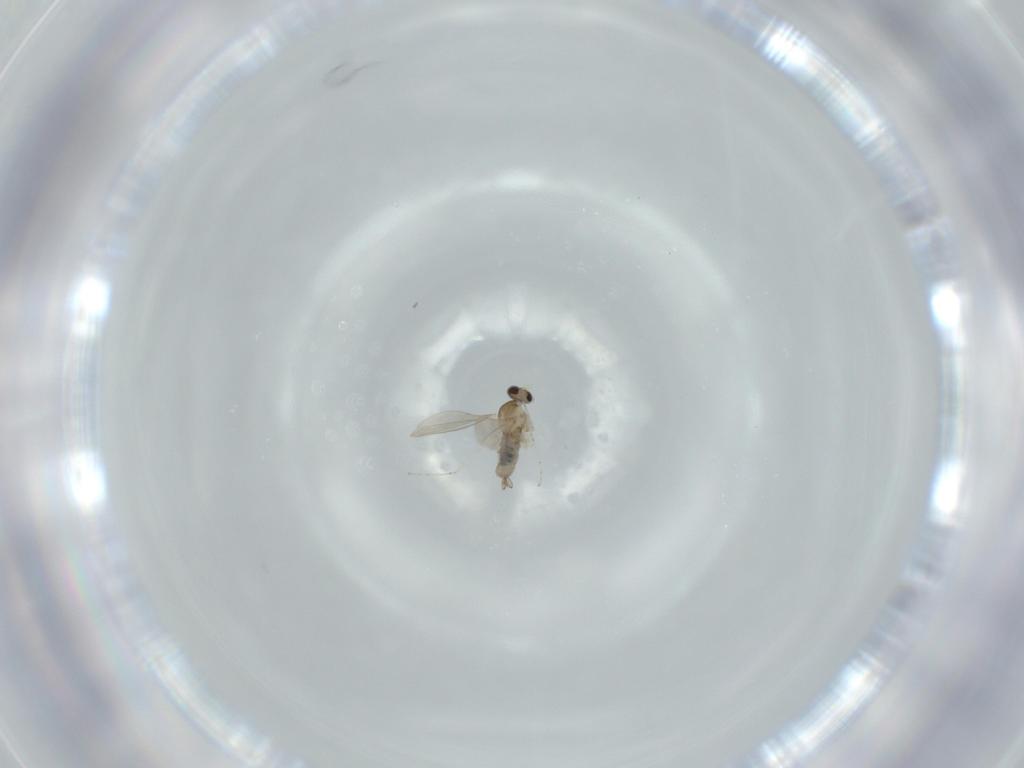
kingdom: Animalia
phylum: Arthropoda
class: Insecta
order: Diptera
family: Cecidomyiidae
